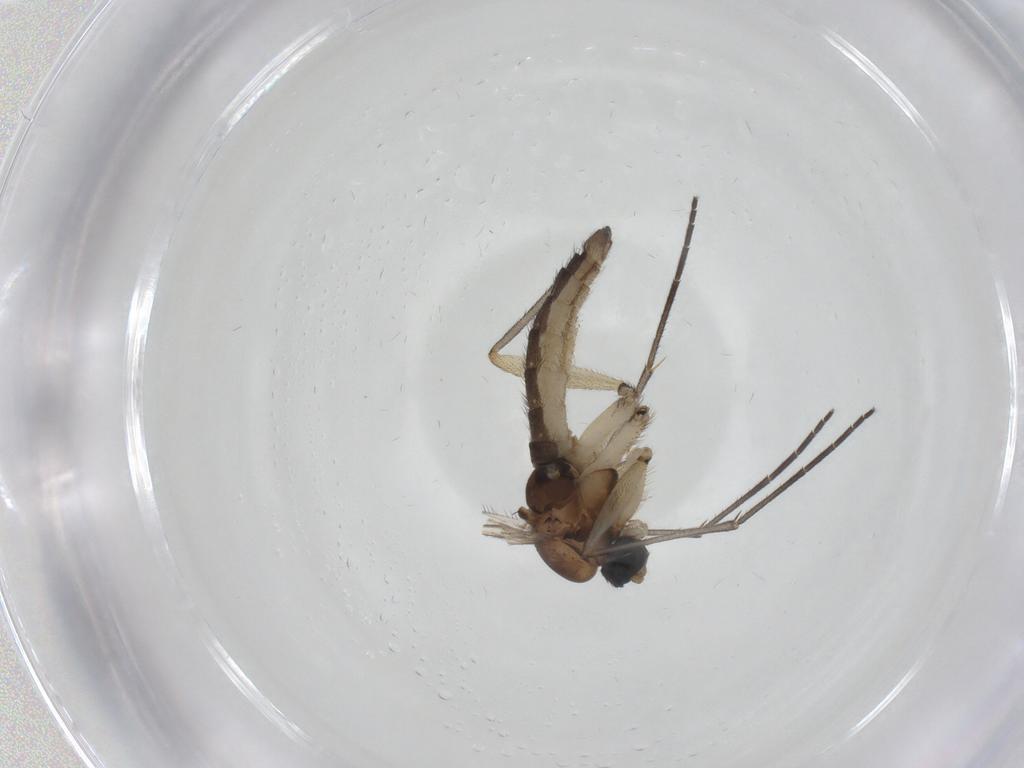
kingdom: Animalia
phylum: Arthropoda
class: Insecta
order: Diptera
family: Sciaridae
